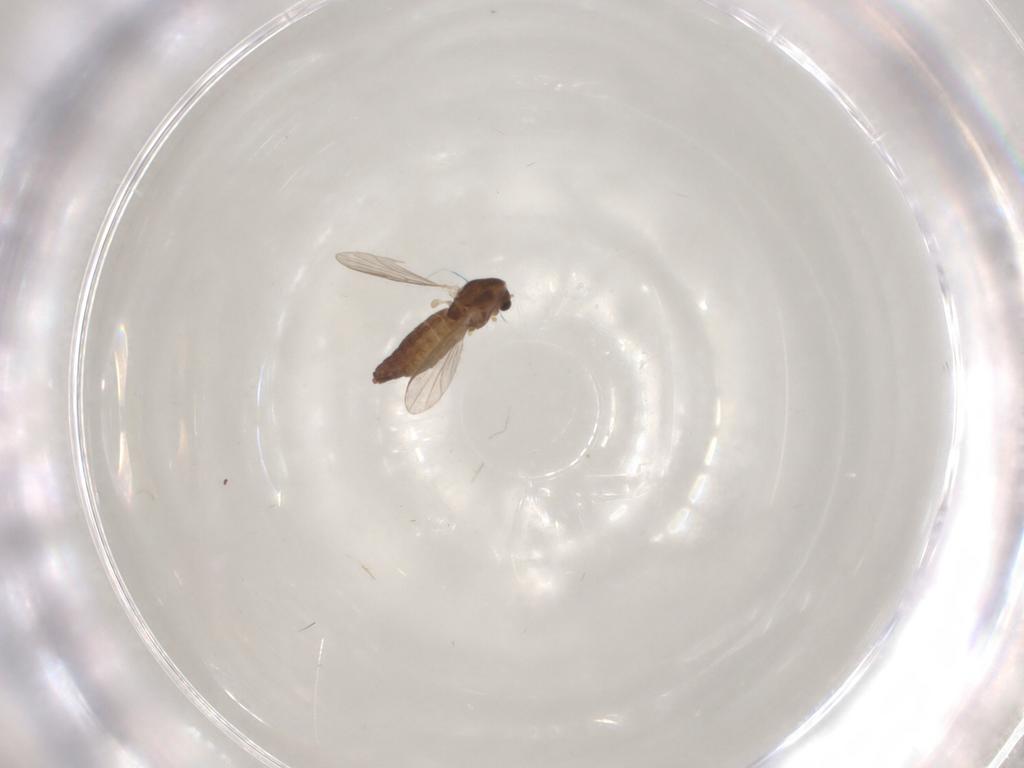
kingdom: Animalia
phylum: Arthropoda
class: Insecta
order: Diptera
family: Chironomidae
